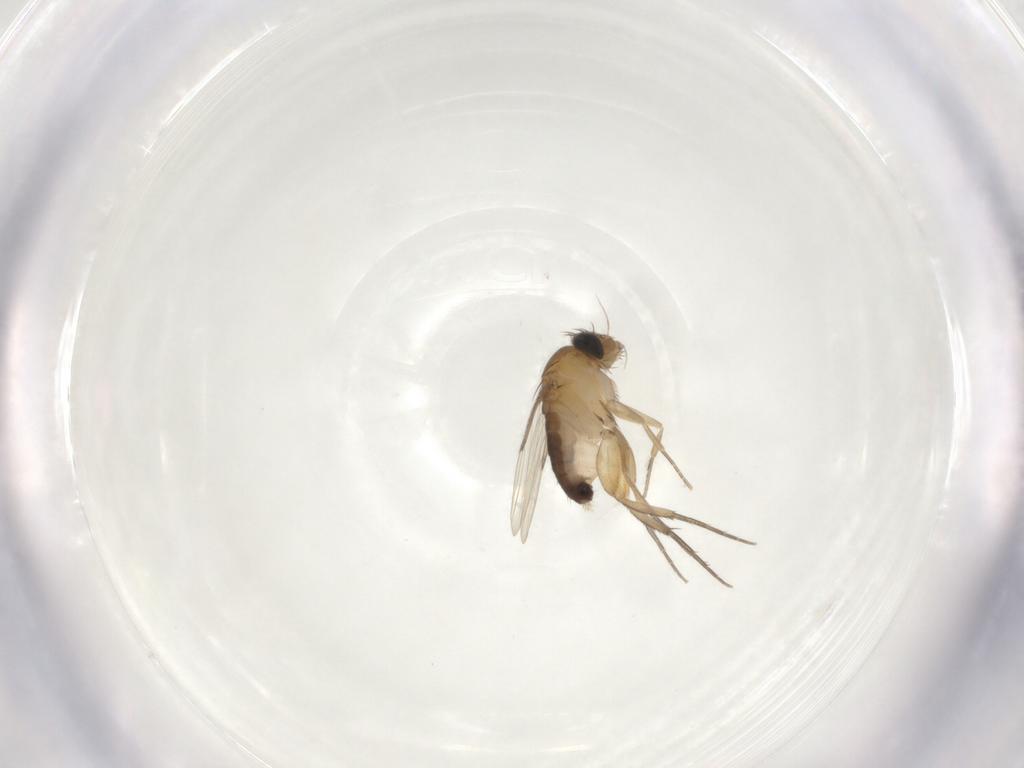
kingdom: Animalia
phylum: Arthropoda
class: Insecta
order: Diptera
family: Phoridae
